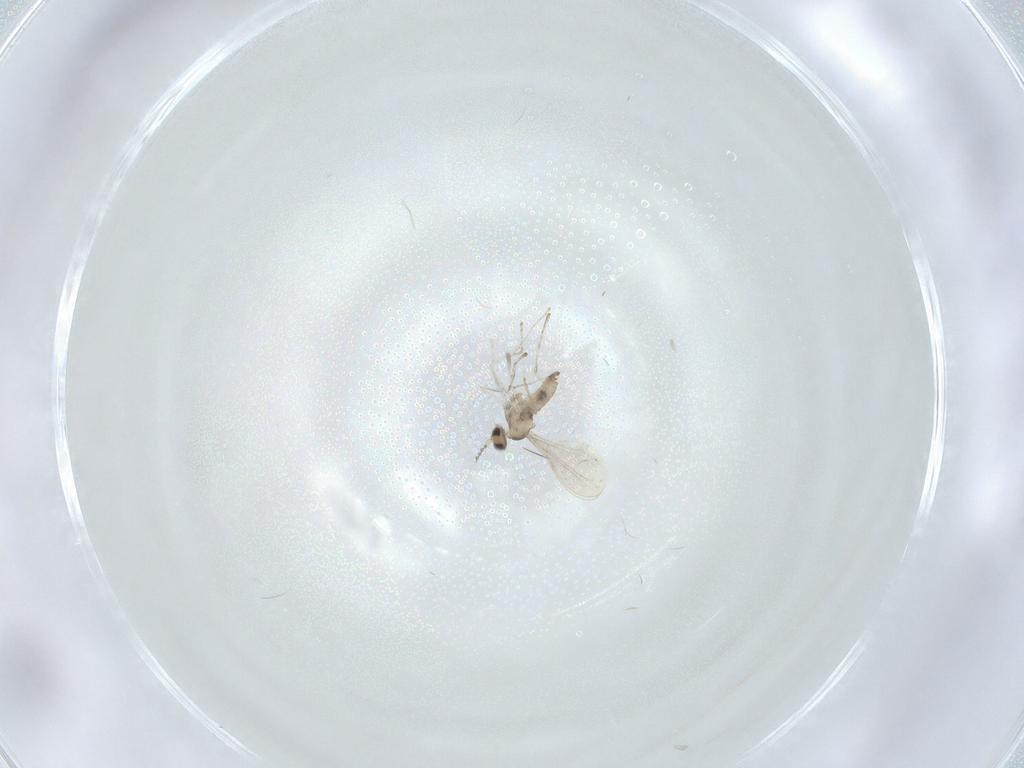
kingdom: Animalia
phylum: Arthropoda
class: Insecta
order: Diptera
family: Cecidomyiidae
